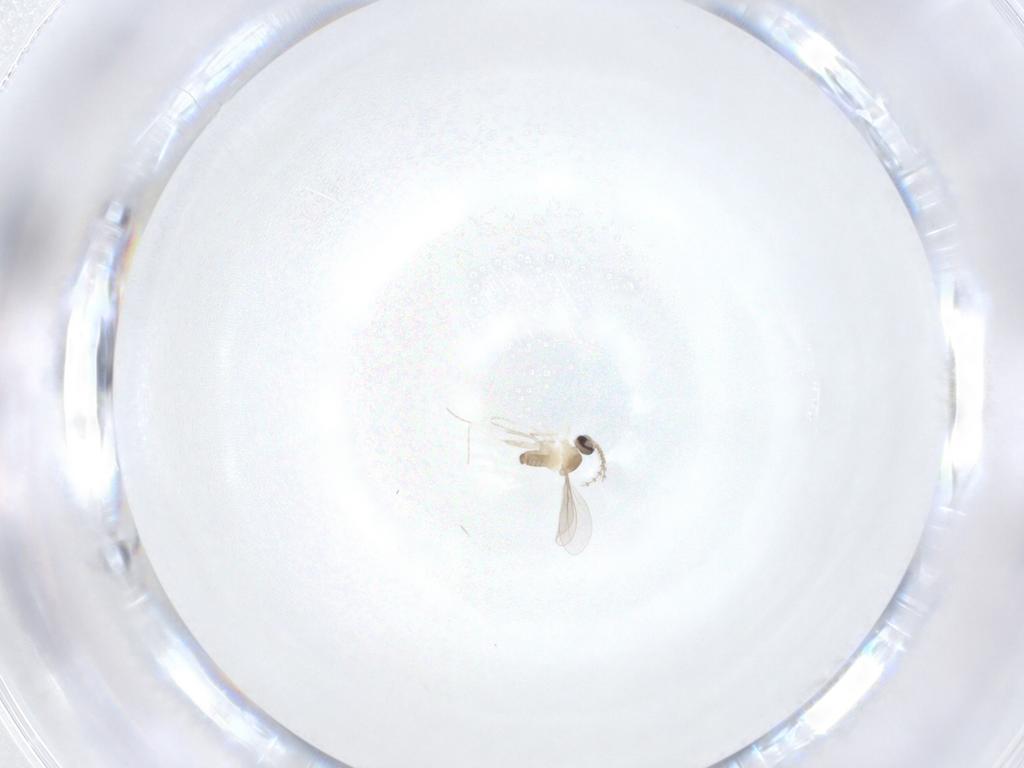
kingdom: Animalia
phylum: Arthropoda
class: Insecta
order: Diptera
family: Cecidomyiidae
